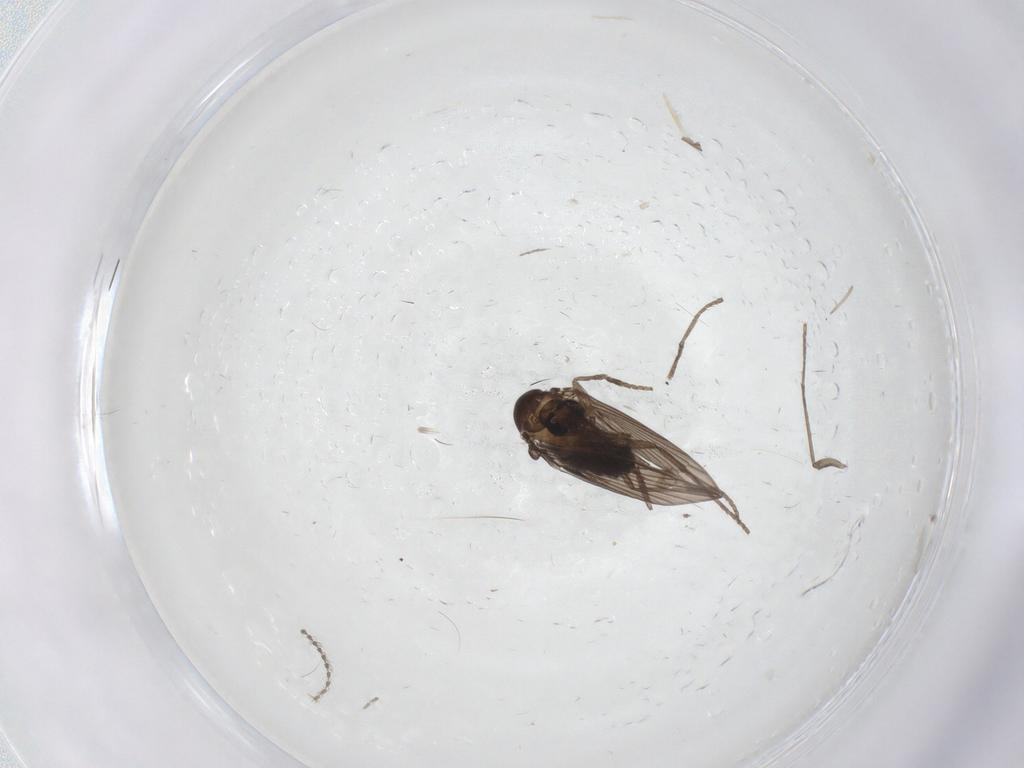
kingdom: Animalia
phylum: Arthropoda
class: Insecta
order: Diptera
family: Psychodidae
